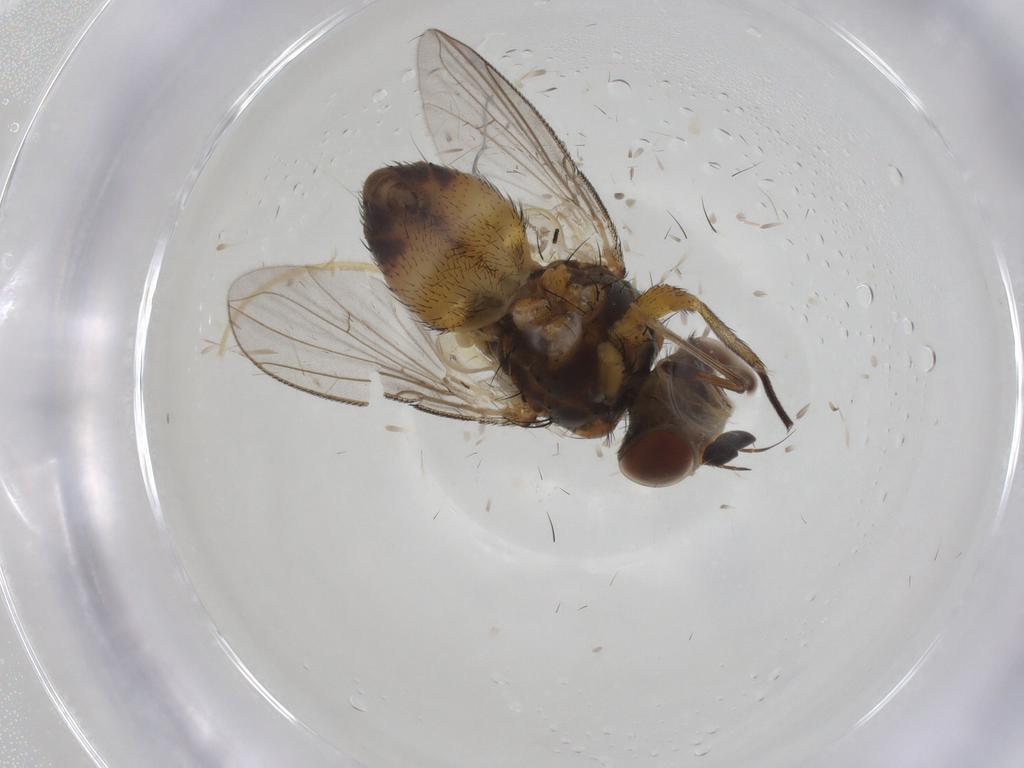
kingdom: Animalia
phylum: Arthropoda
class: Insecta
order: Diptera
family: Tachinidae
